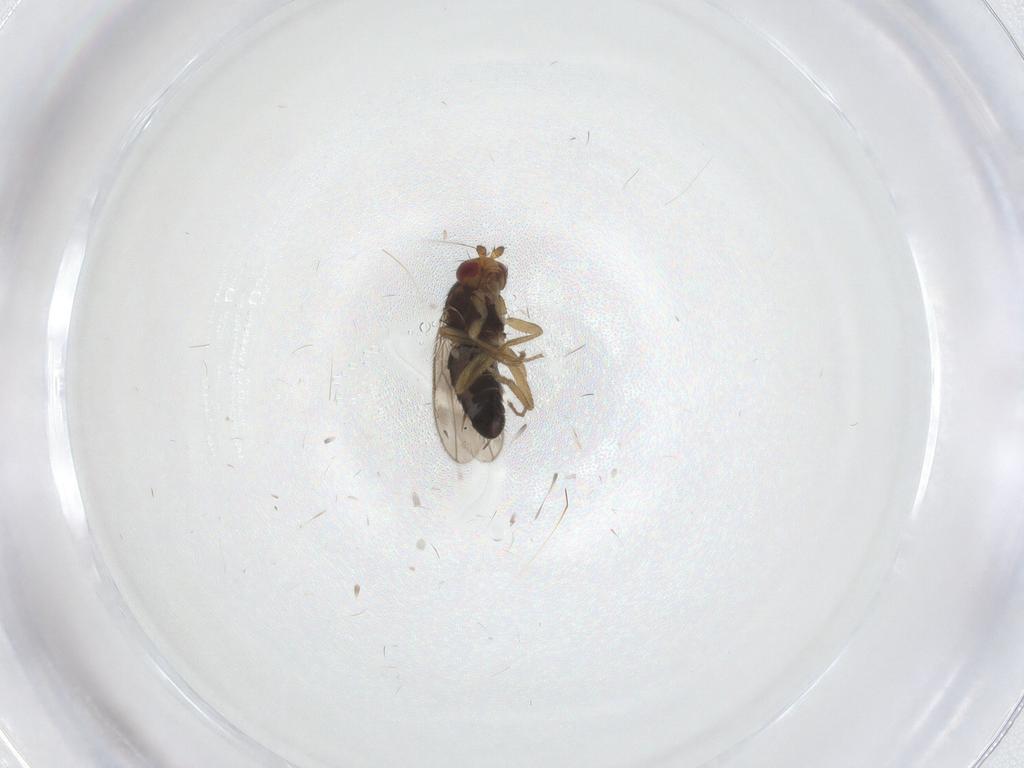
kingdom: Animalia
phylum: Arthropoda
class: Insecta
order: Diptera
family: Sphaeroceridae
